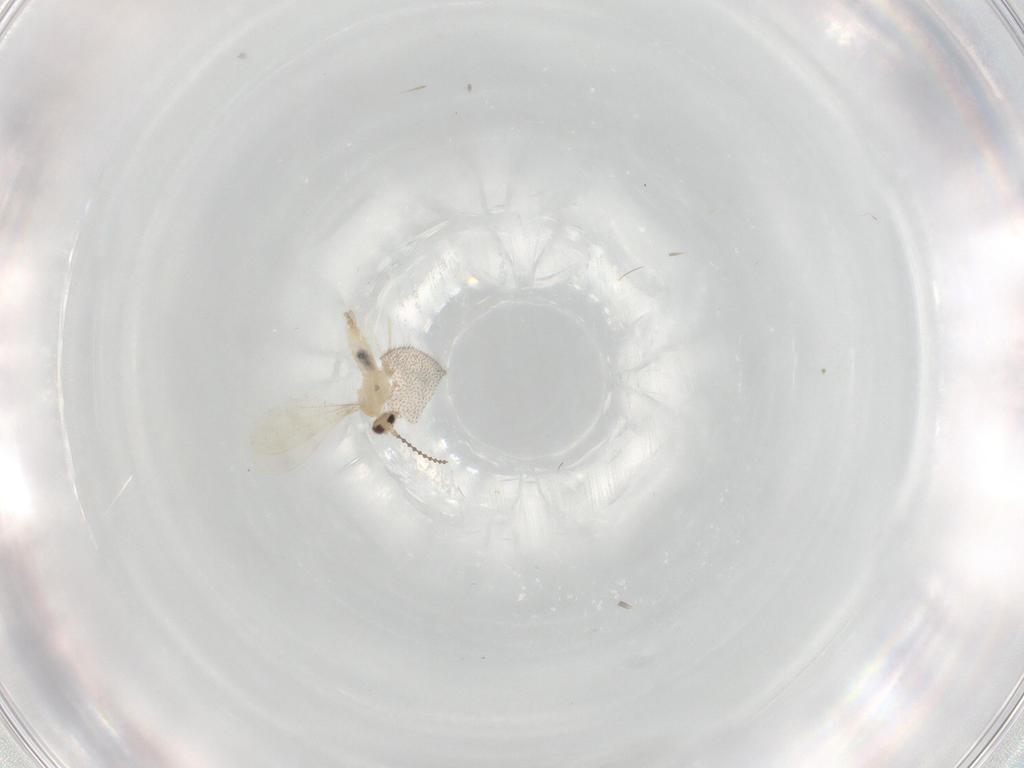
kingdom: Animalia
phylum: Arthropoda
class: Insecta
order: Diptera
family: Cecidomyiidae
